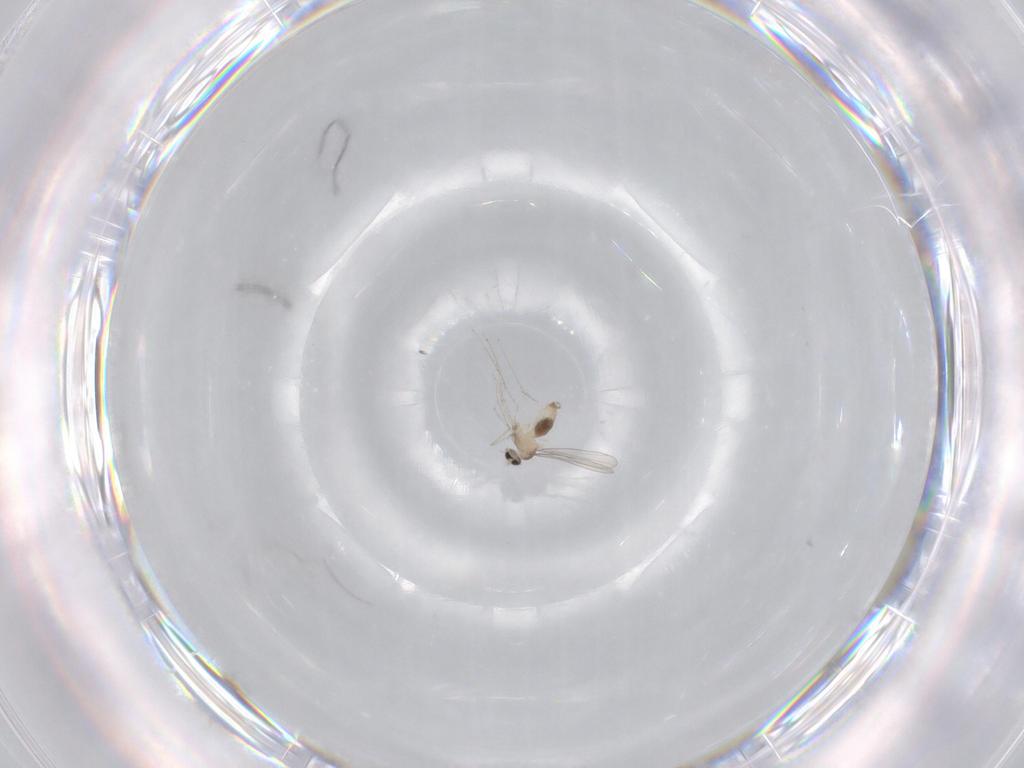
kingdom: Animalia
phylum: Arthropoda
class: Insecta
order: Diptera
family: Cecidomyiidae
